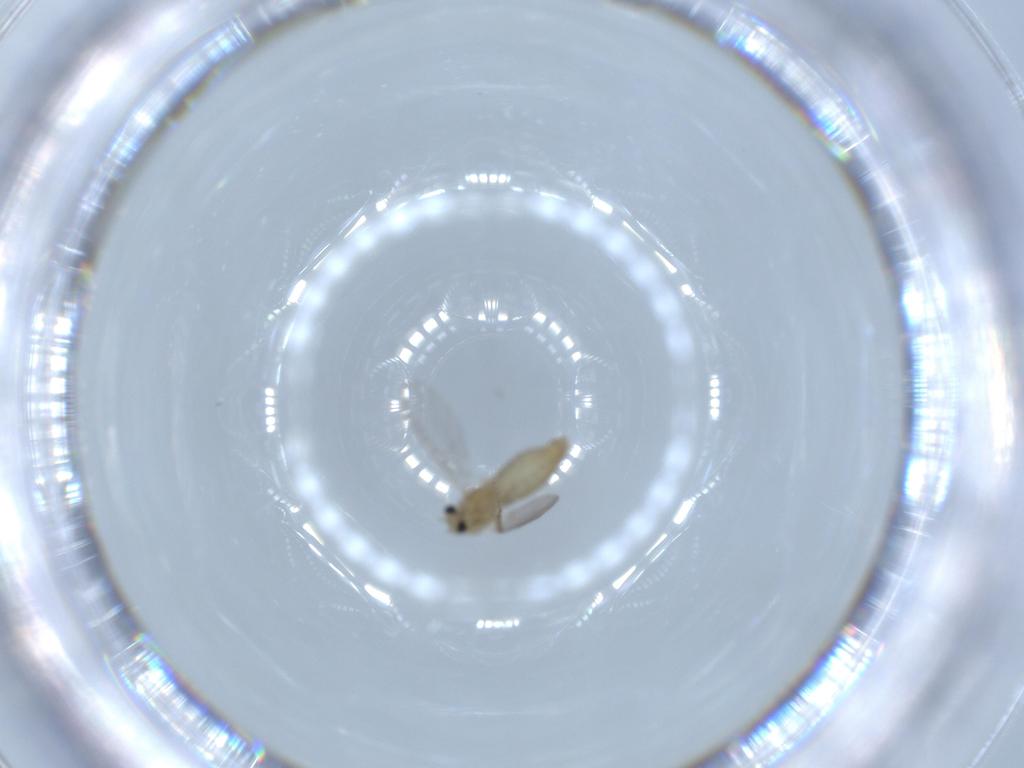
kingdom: Animalia
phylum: Arthropoda
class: Insecta
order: Diptera
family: Chironomidae
